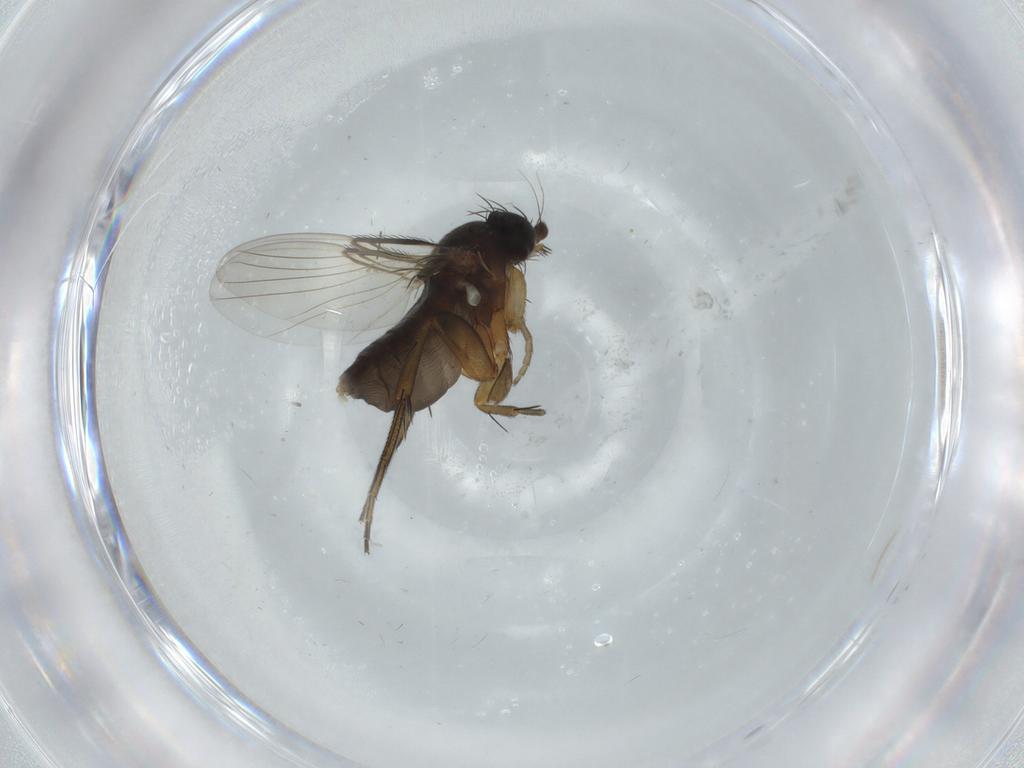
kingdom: Animalia
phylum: Arthropoda
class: Insecta
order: Diptera
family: Phoridae
